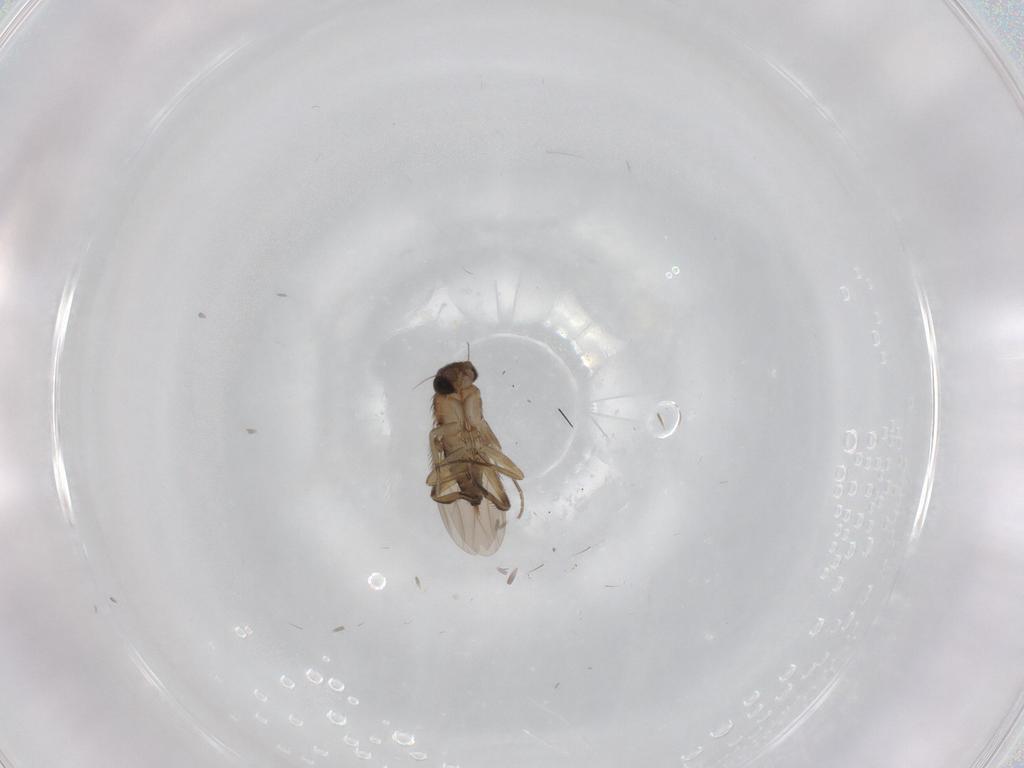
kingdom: Animalia
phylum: Arthropoda
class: Insecta
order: Diptera
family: Phoridae
